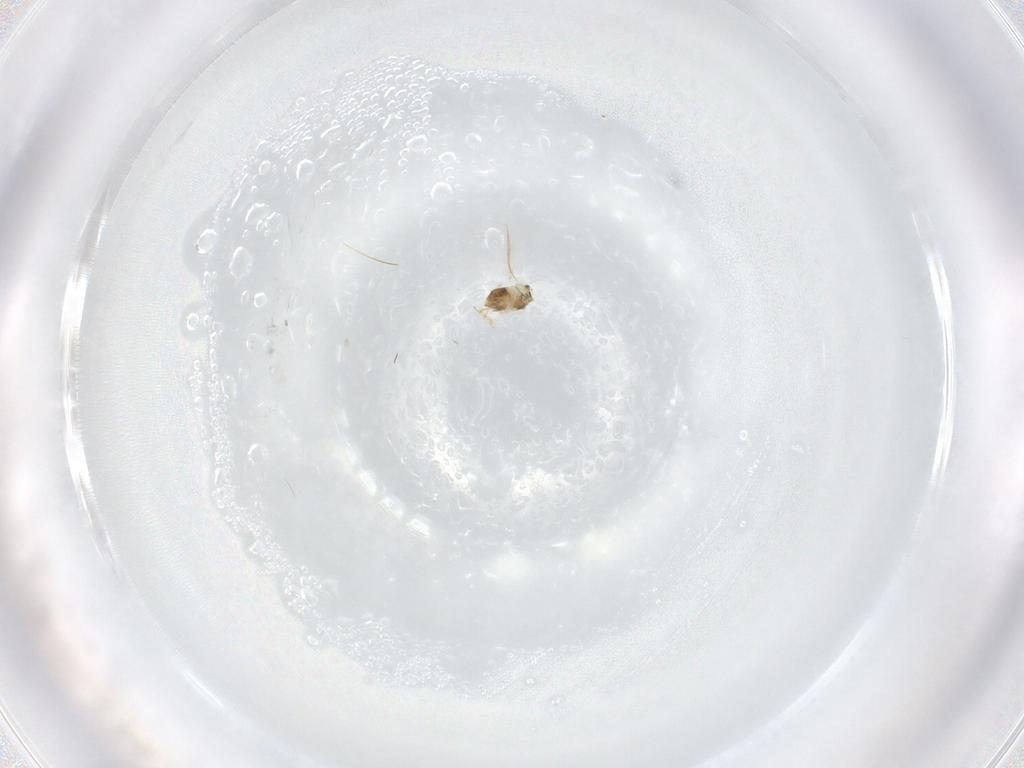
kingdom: Animalia
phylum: Arthropoda
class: Insecta
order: Hymenoptera
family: Aphelinidae
